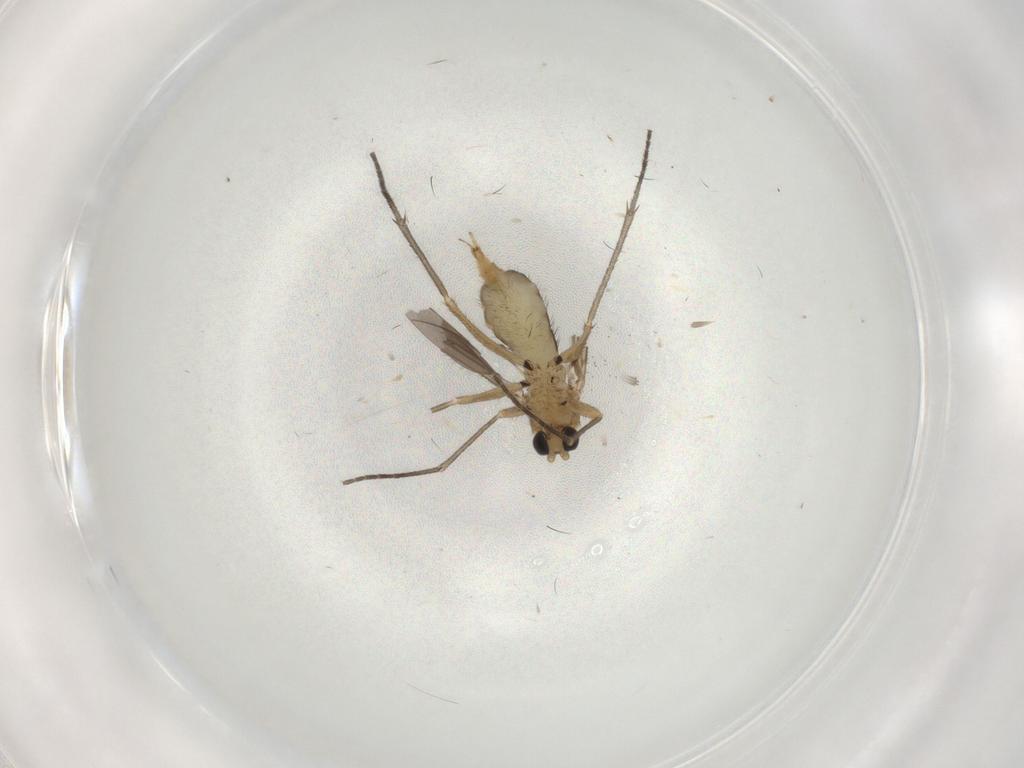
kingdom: Animalia
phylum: Arthropoda
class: Insecta
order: Diptera
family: Sciaridae
